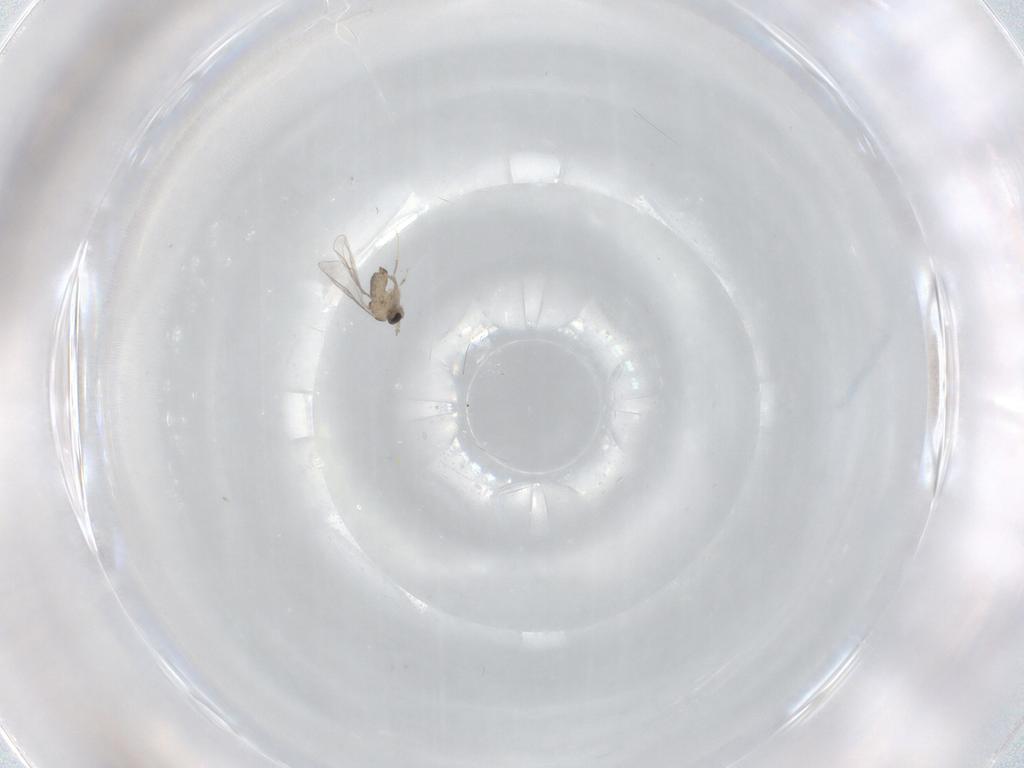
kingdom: Animalia
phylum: Arthropoda
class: Insecta
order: Diptera
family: Cecidomyiidae
